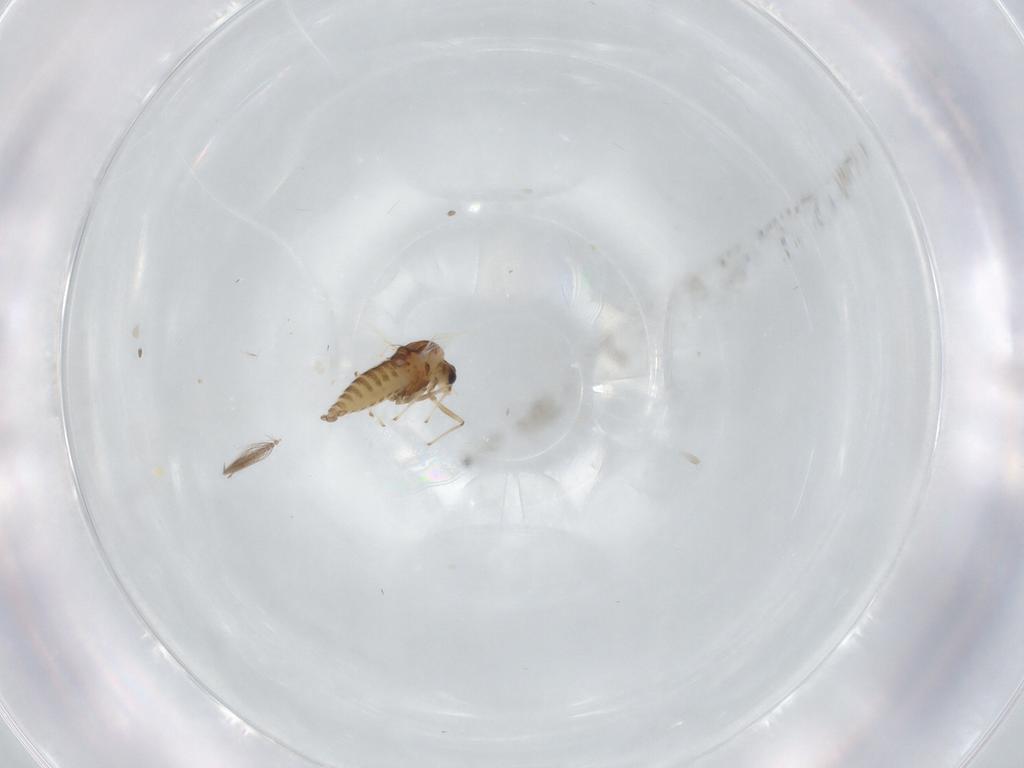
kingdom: Animalia
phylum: Arthropoda
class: Insecta
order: Diptera
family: Chironomidae
